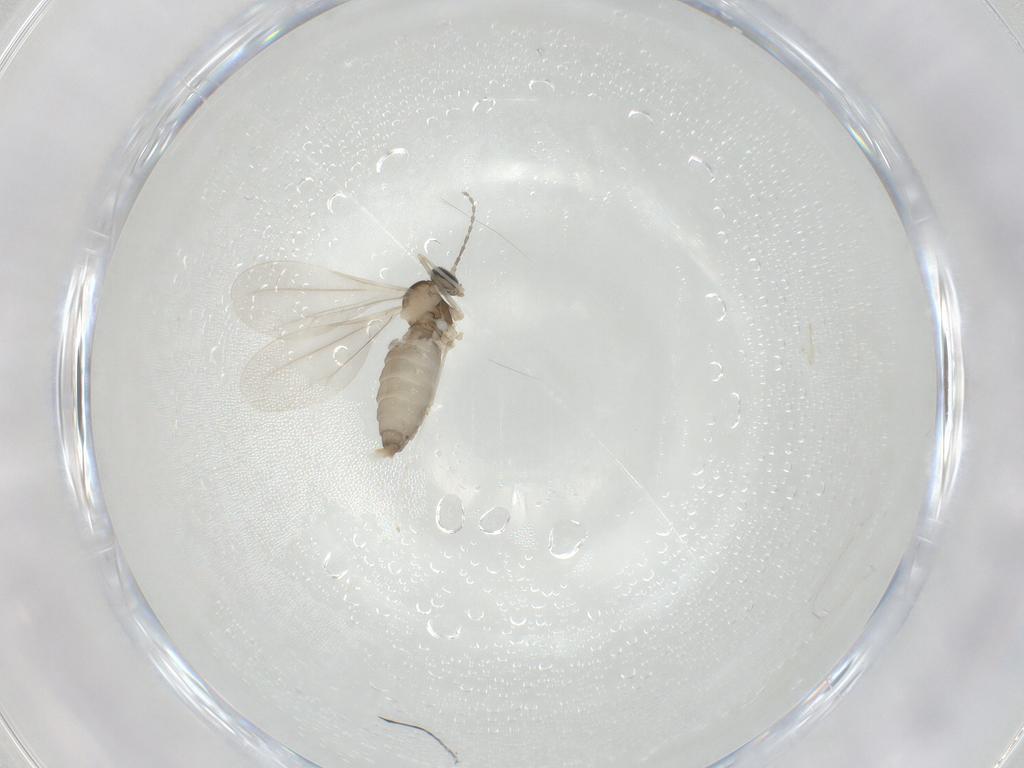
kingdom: Animalia
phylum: Arthropoda
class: Insecta
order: Diptera
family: Cecidomyiidae
